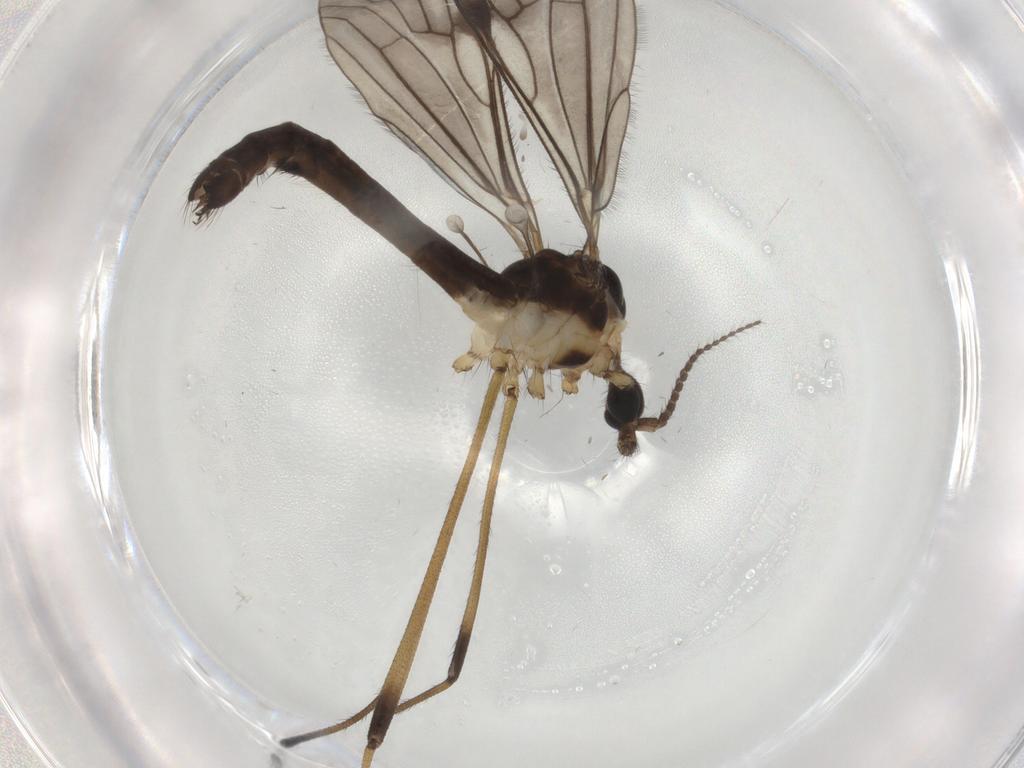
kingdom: Animalia
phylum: Arthropoda
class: Insecta
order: Diptera
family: Limoniidae
